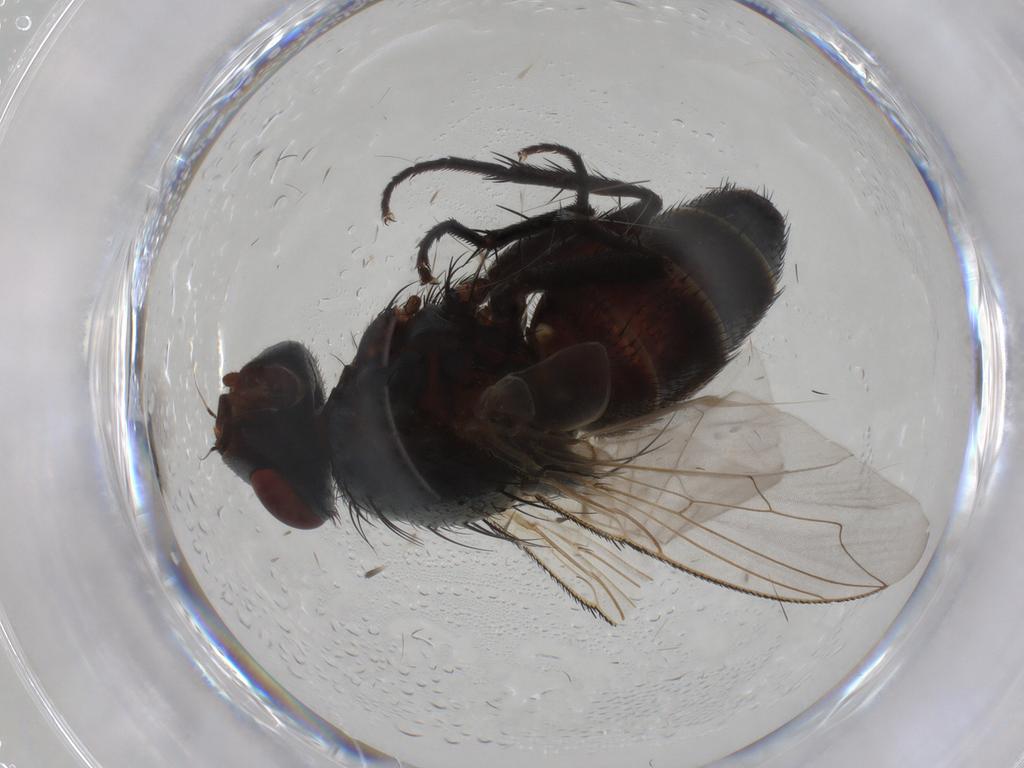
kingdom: Animalia
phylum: Arthropoda
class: Insecta
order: Diptera
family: Sarcophagidae
